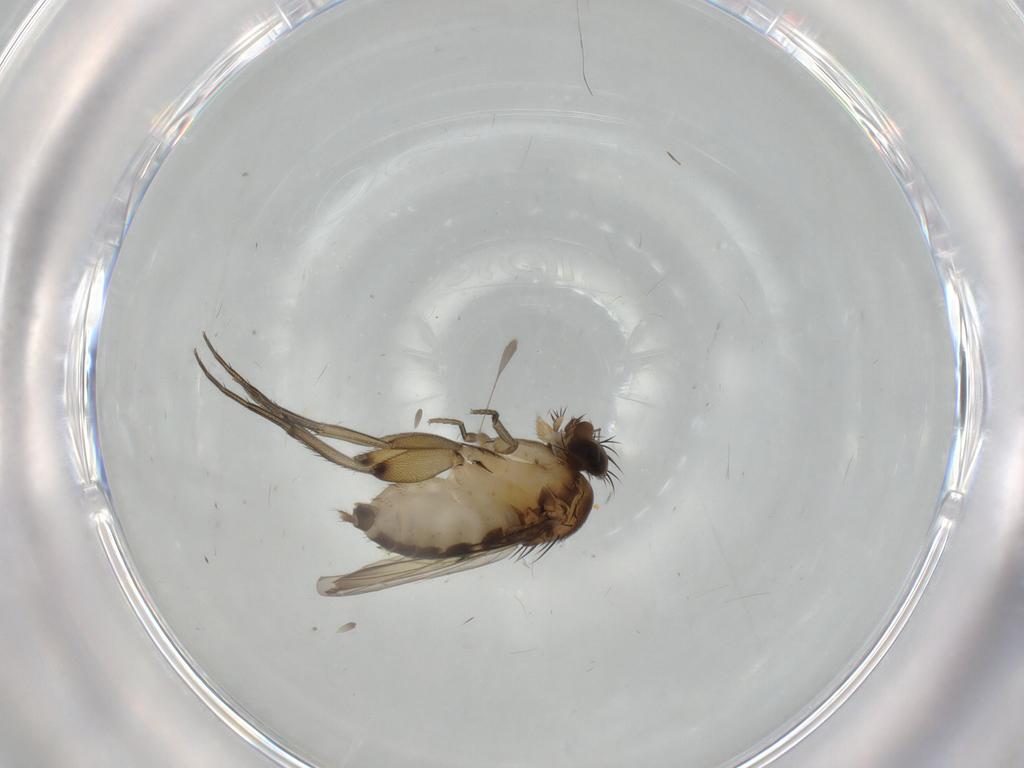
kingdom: Animalia
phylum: Arthropoda
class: Insecta
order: Diptera
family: Phoridae
